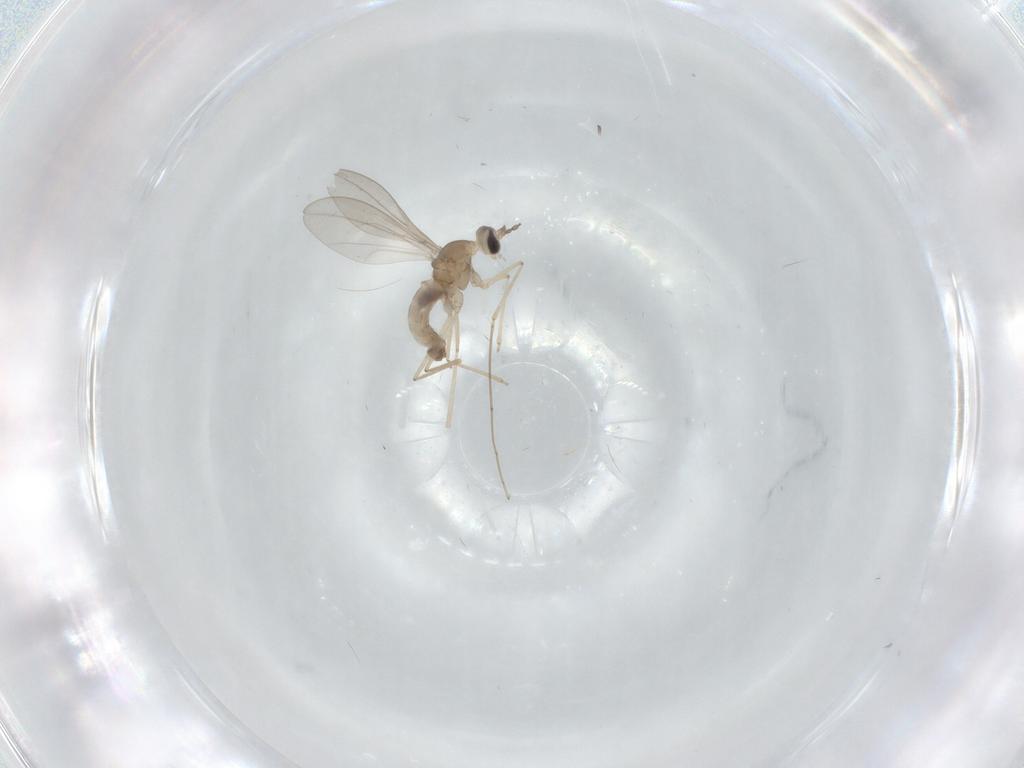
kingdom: Animalia
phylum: Arthropoda
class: Insecta
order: Diptera
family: Cecidomyiidae
